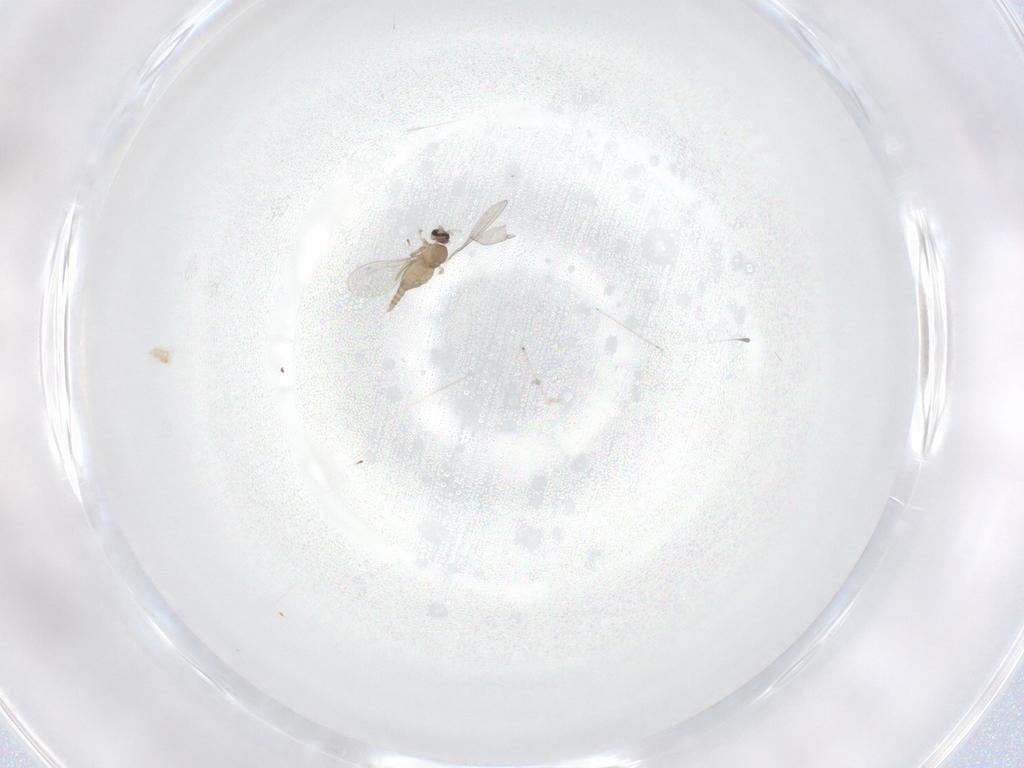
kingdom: Animalia
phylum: Arthropoda
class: Insecta
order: Diptera
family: Cecidomyiidae
